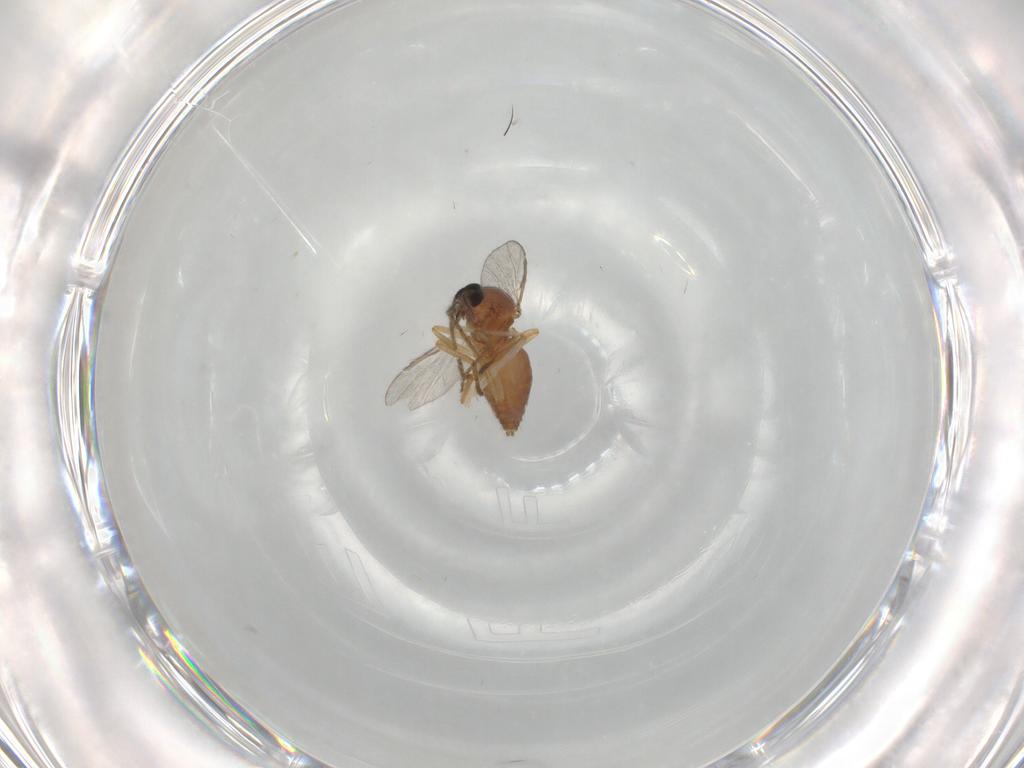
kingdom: Animalia
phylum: Arthropoda
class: Insecta
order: Diptera
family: Ceratopogonidae
